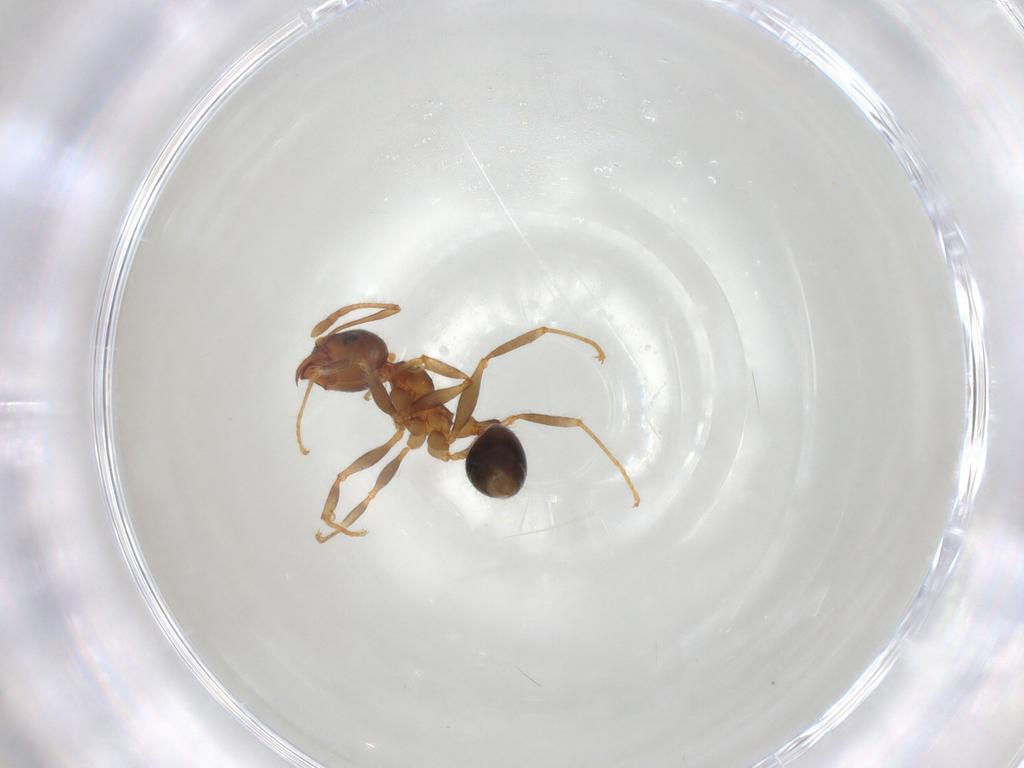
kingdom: Animalia
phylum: Arthropoda
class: Insecta
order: Hymenoptera
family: Formicidae
